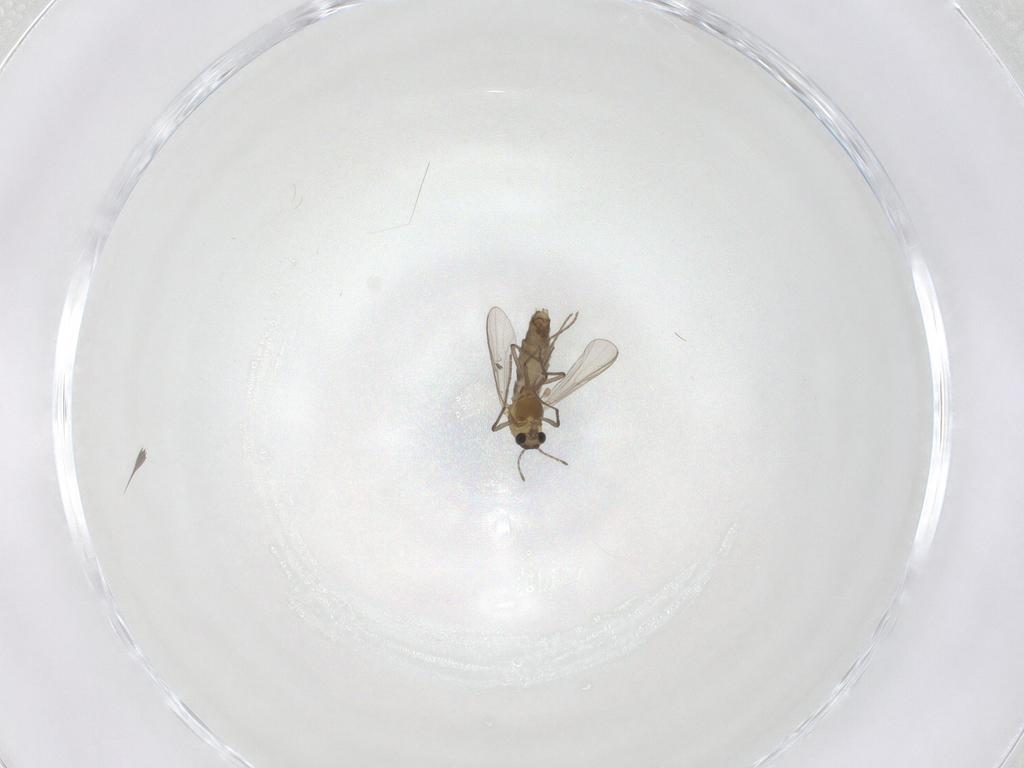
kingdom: Animalia
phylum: Arthropoda
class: Insecta
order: Diptera
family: Chironomidae
